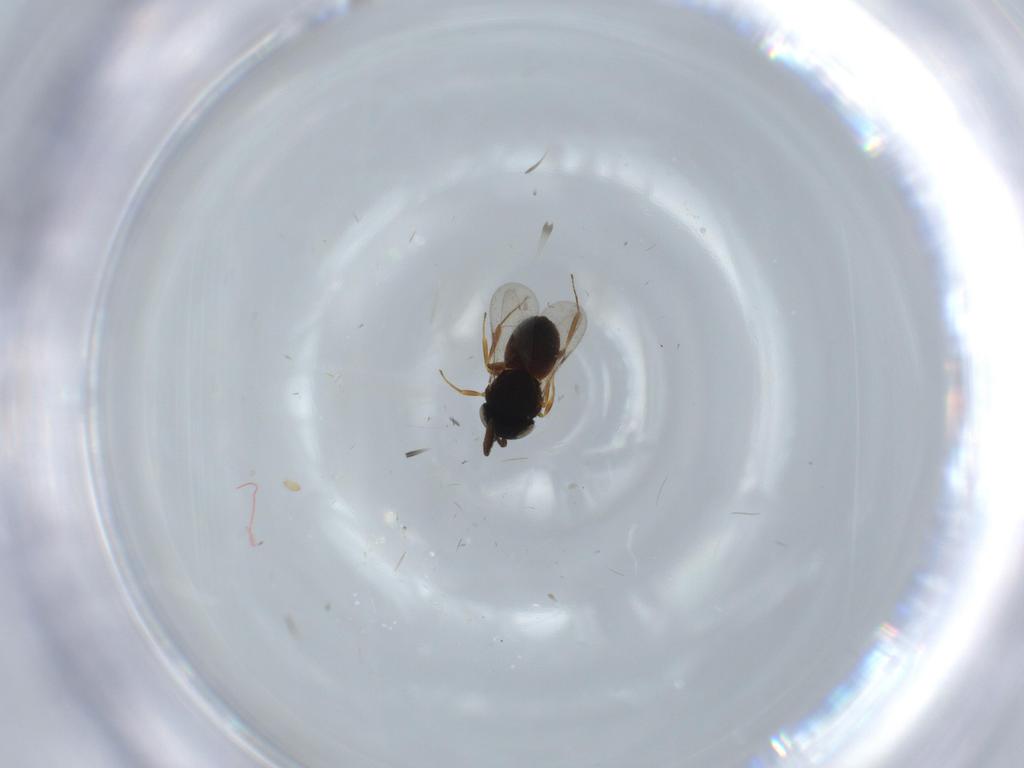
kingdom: Animalia
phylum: Arthropoda
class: Insecta
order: Hymenoptera
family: Scelionidae
